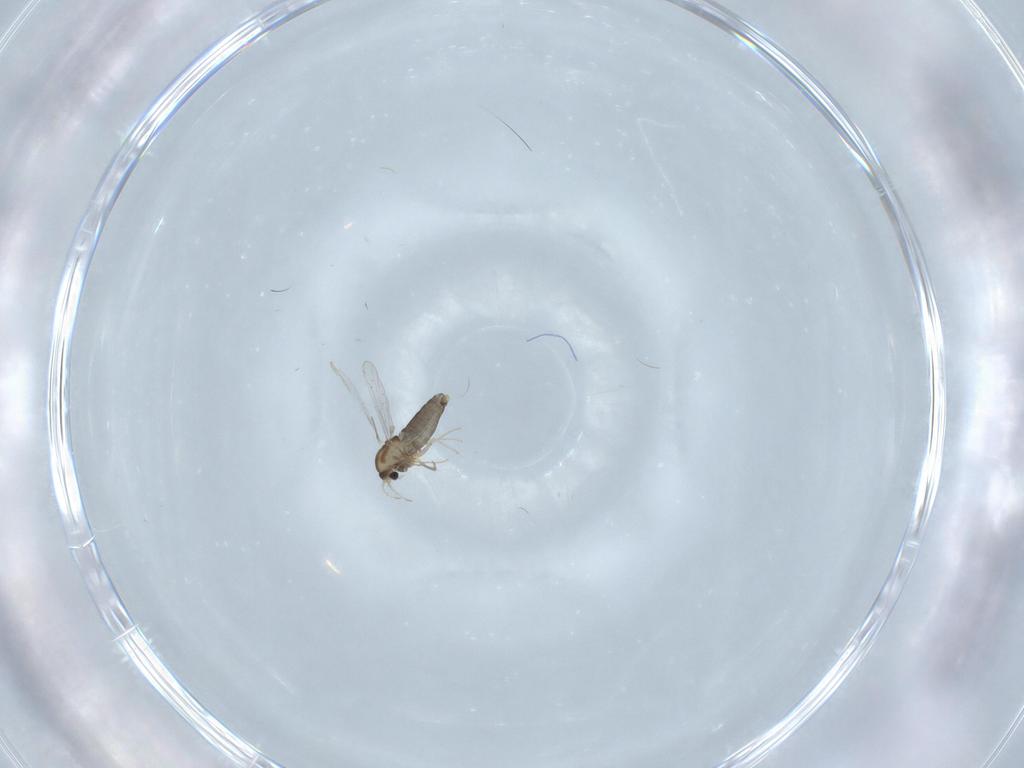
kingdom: Animalia
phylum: Arthropoda
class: Insecta
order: Diptera
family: Chironomidae
